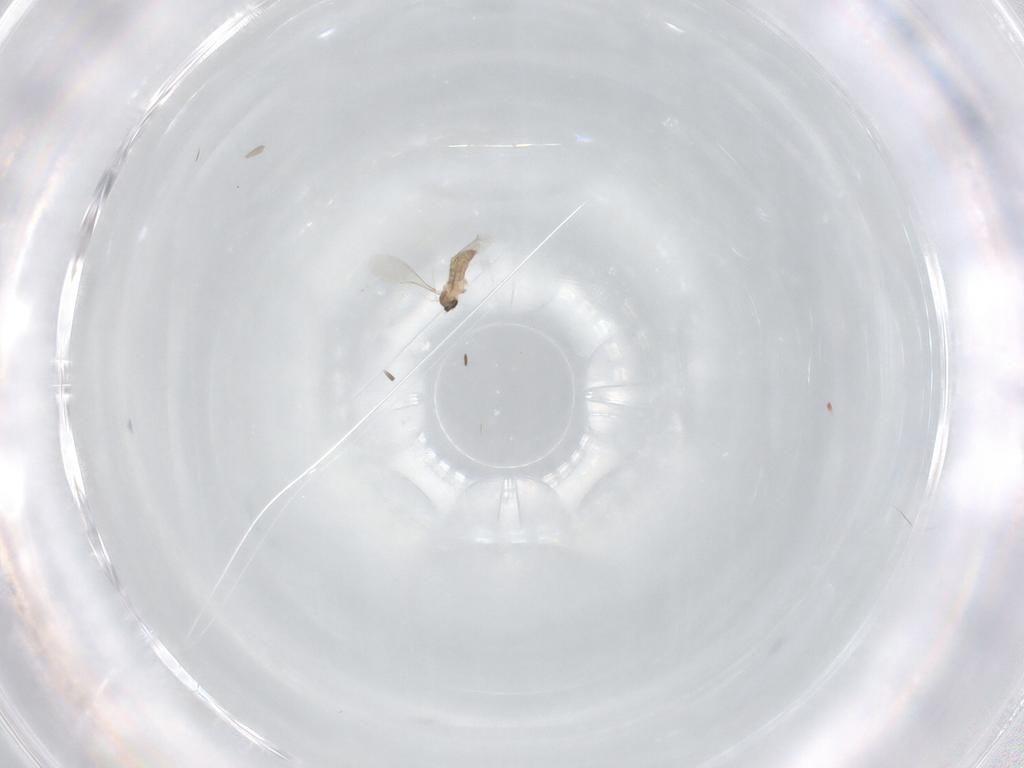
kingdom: Animalia
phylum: Arthropoda
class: Insecta
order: Diptera
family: Cecidomyiidae
